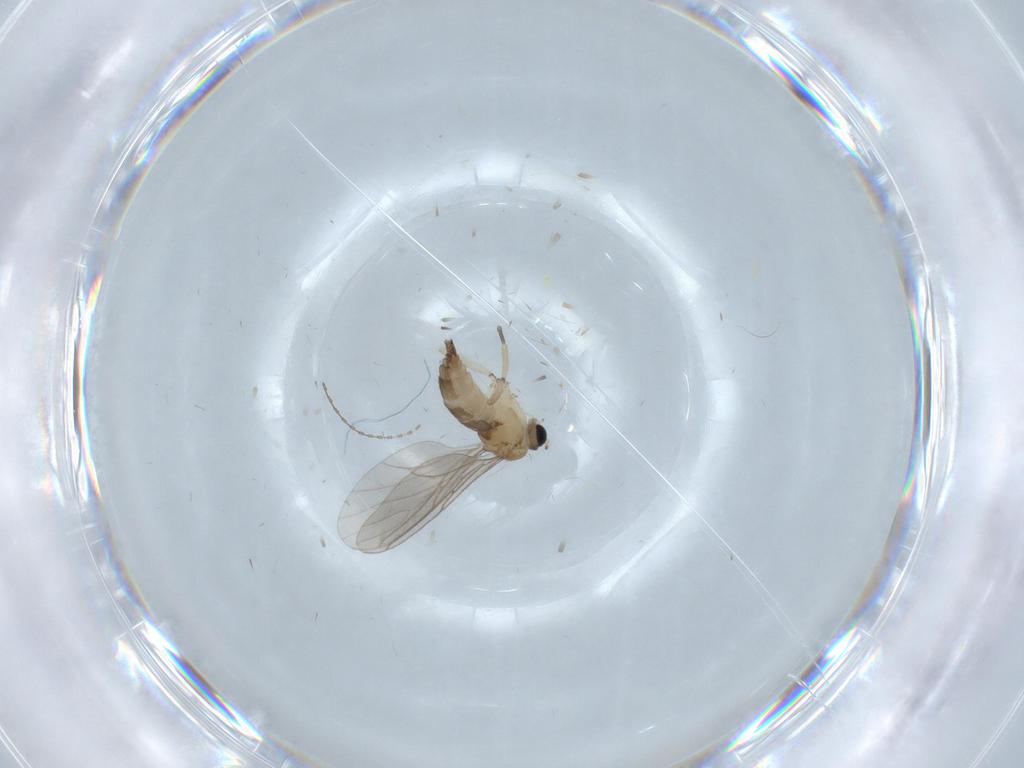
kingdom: Animalia
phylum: Arthropoda
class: Insecta
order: Diptera
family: Sciaridae
